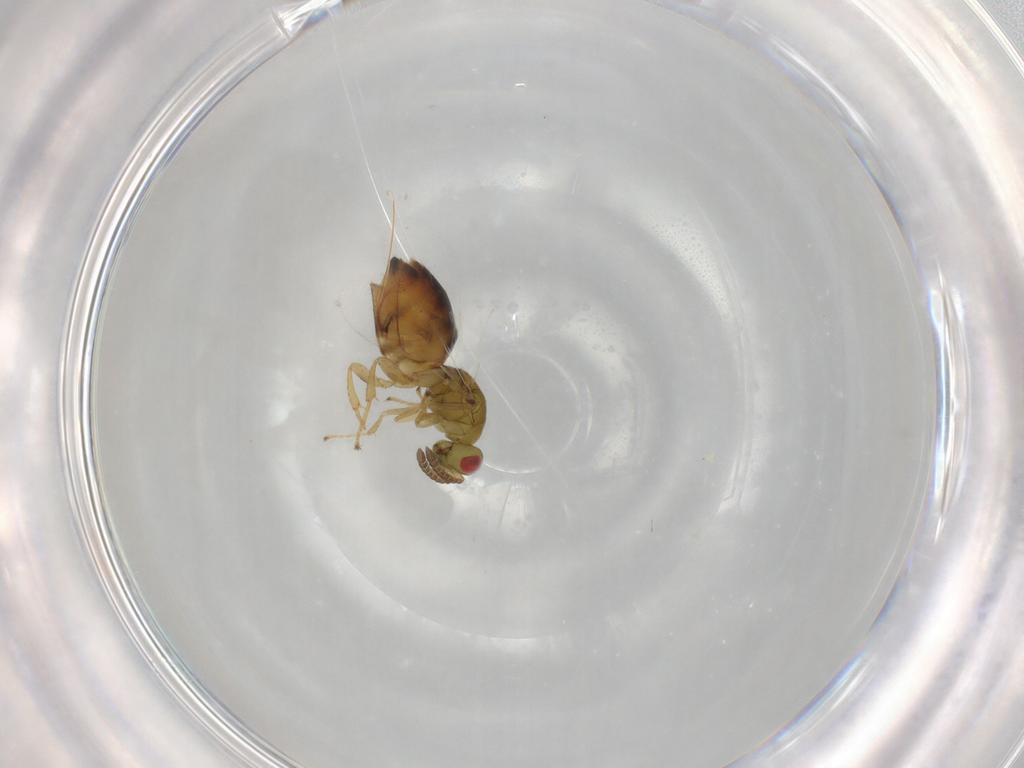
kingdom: Animalia
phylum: Arthropoda
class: Insecta
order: Hymenoptera
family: Agaonidae
